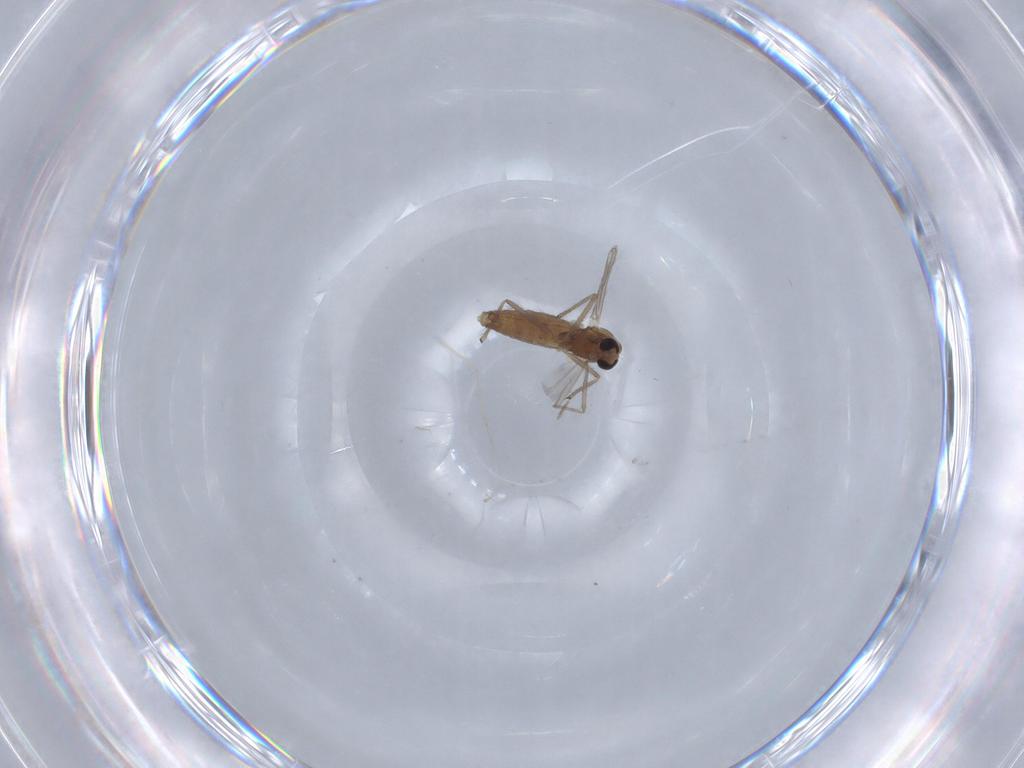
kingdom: Animalia
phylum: Arthropoda
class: Insecta
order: Diptera
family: Chironomidae
